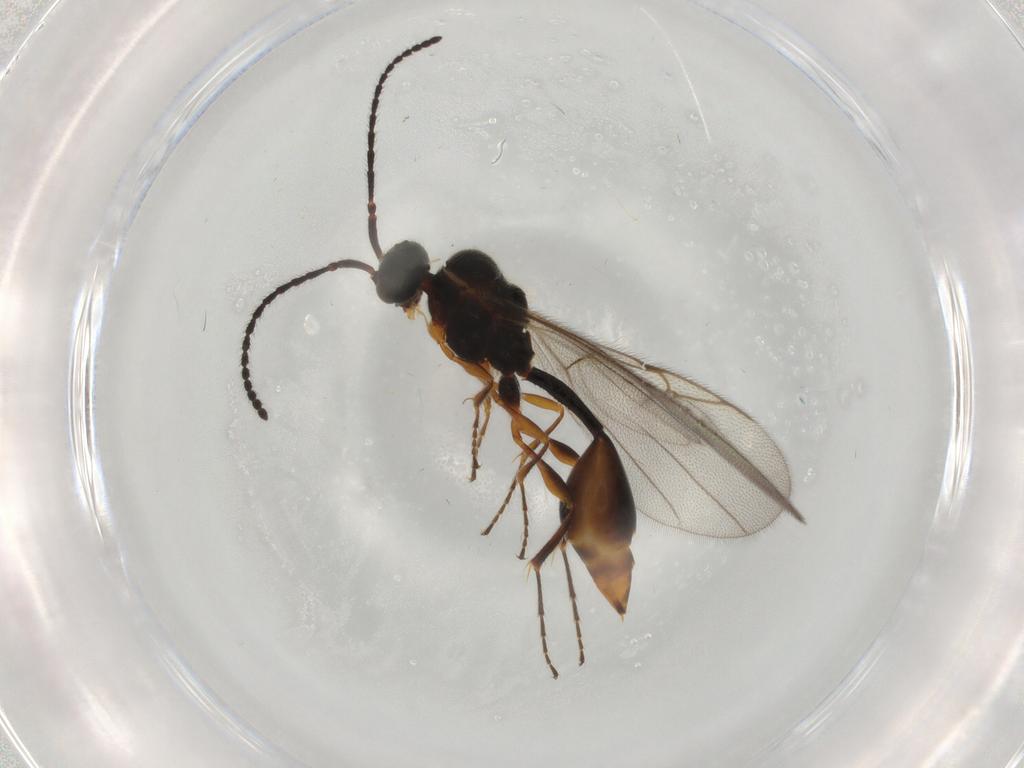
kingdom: Animalia
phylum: Arthropoda
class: Insecta
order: Hymenoptera
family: Diapriidae
